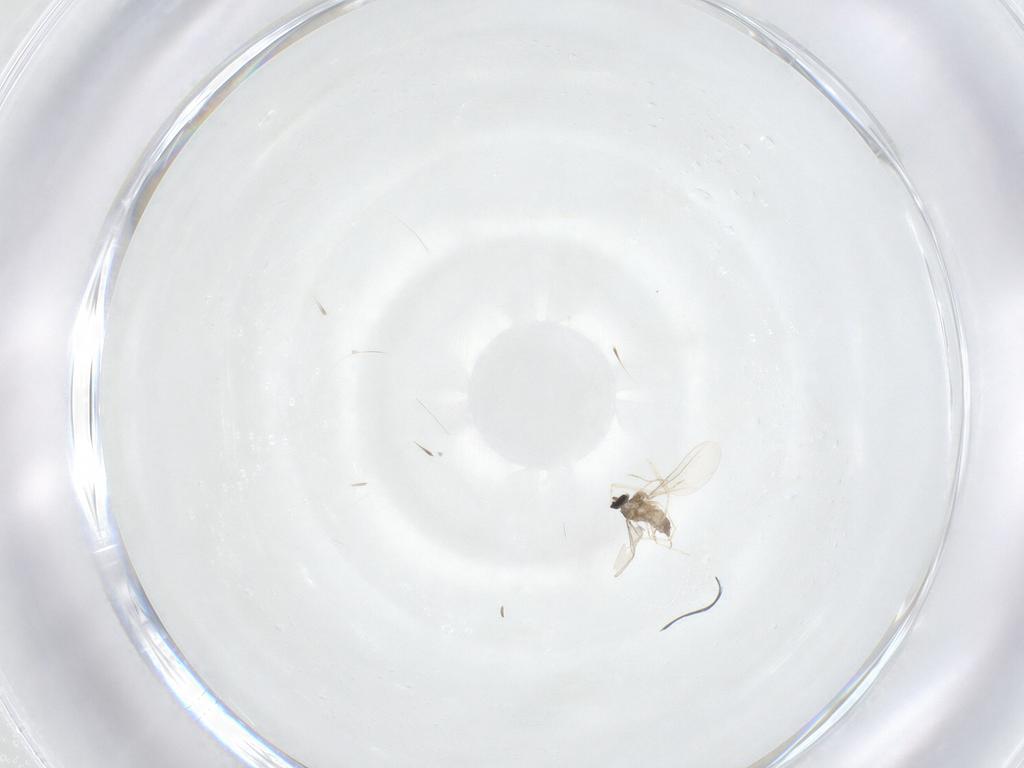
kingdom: Animalia
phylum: Arthropoda
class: Insecta
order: Diptera
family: Cecidomyiidae
